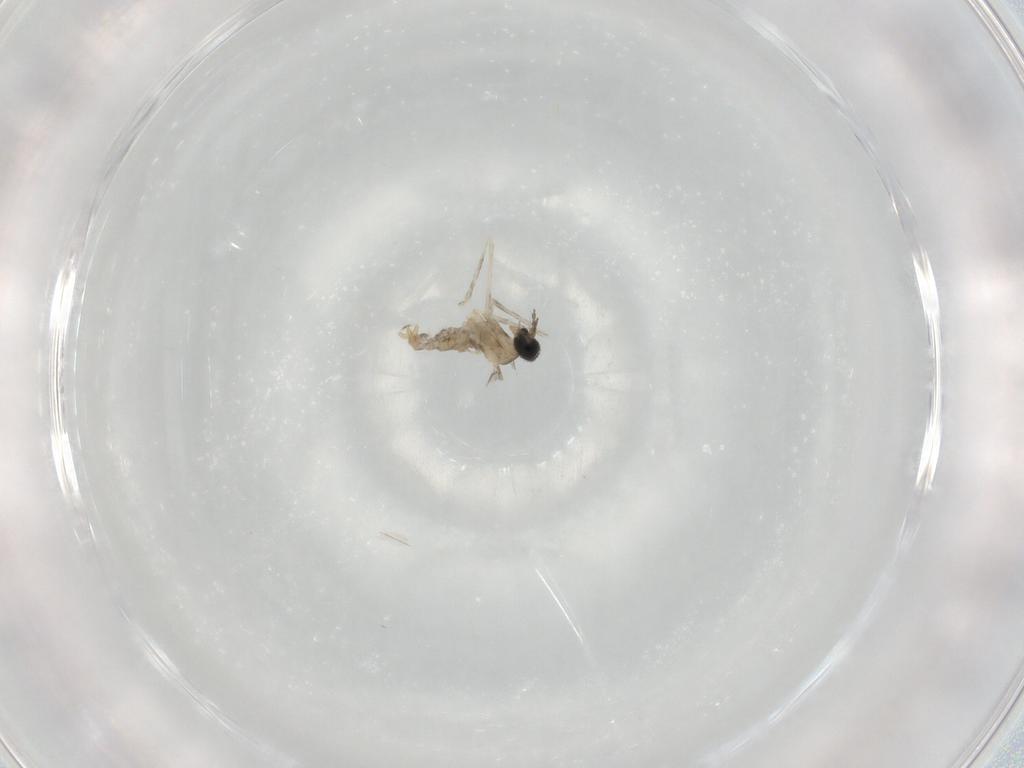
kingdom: Animalia
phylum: Arthropoda
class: Insecta
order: Diptera
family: Cecidomyiidae
